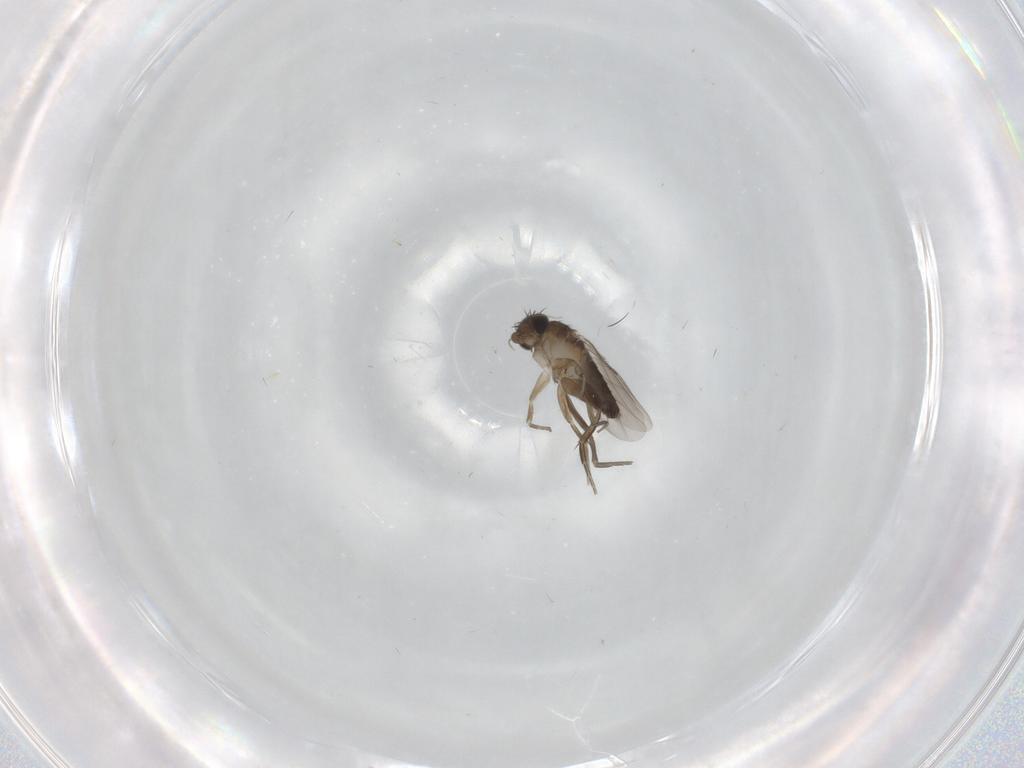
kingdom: Animalia
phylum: Arthropoda
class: Insecta
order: Diptera
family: Phoridae
